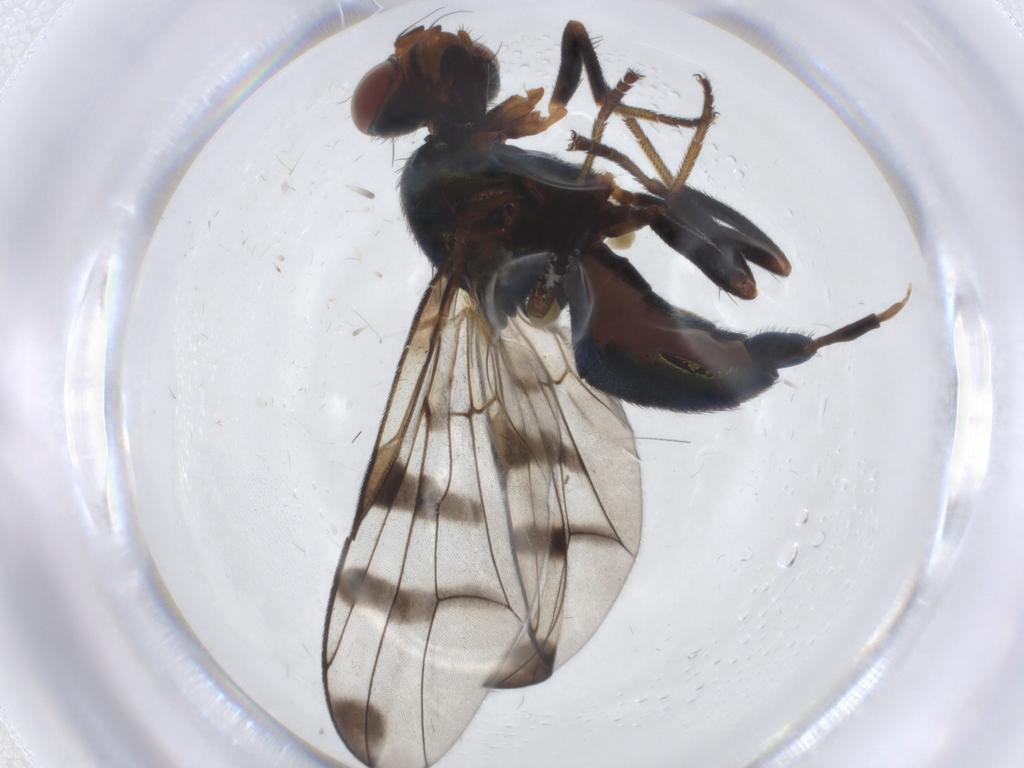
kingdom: Animalia
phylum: Arthropoda
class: Insecta
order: Diptera
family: Platystomatidae
